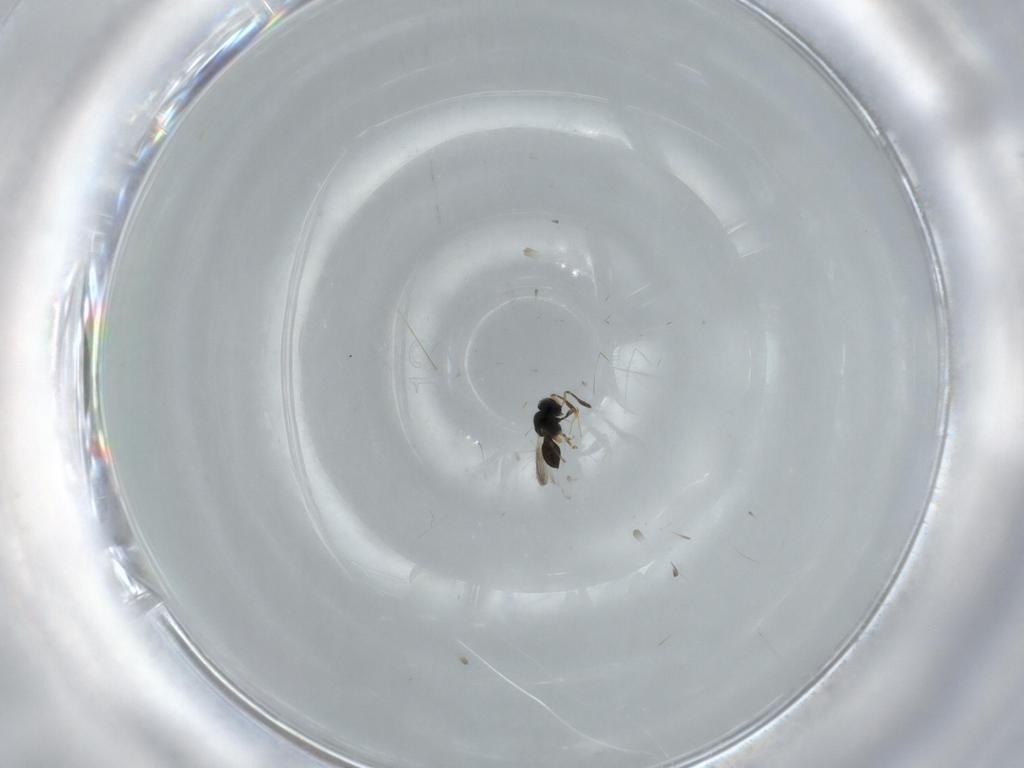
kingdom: Animalia
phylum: Arthropoda
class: Insecta
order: Hymenoptera
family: Scelionidae
